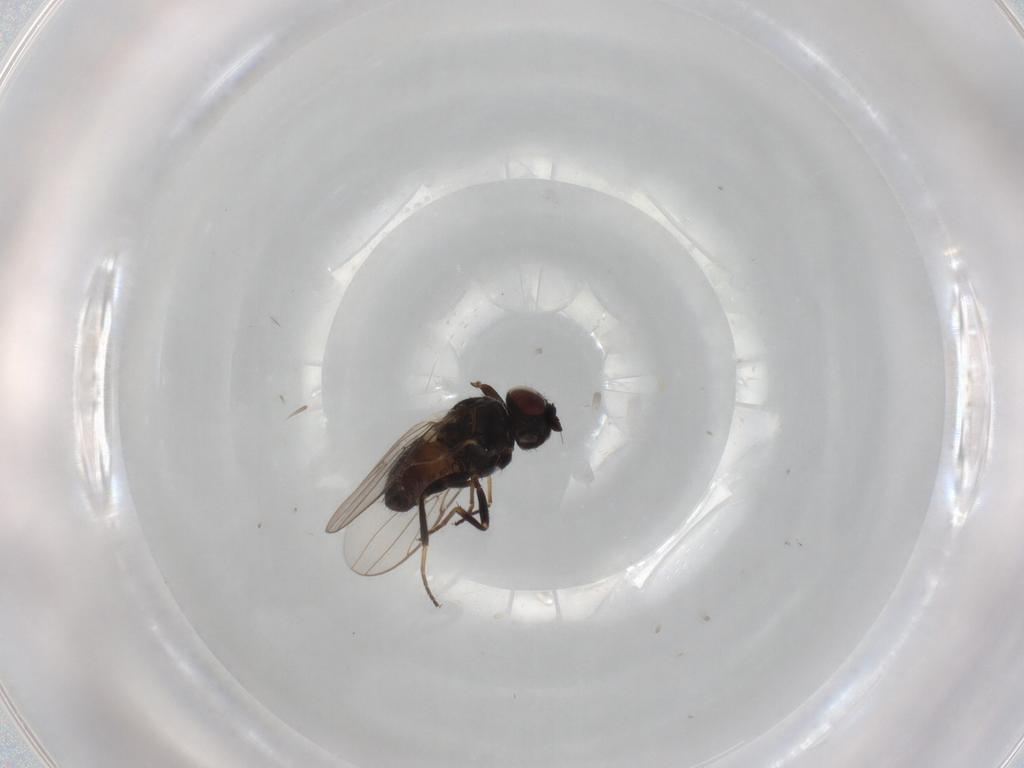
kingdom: Animalia
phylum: Arthropoda
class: Insecta
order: Diptera
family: Chloropidae
